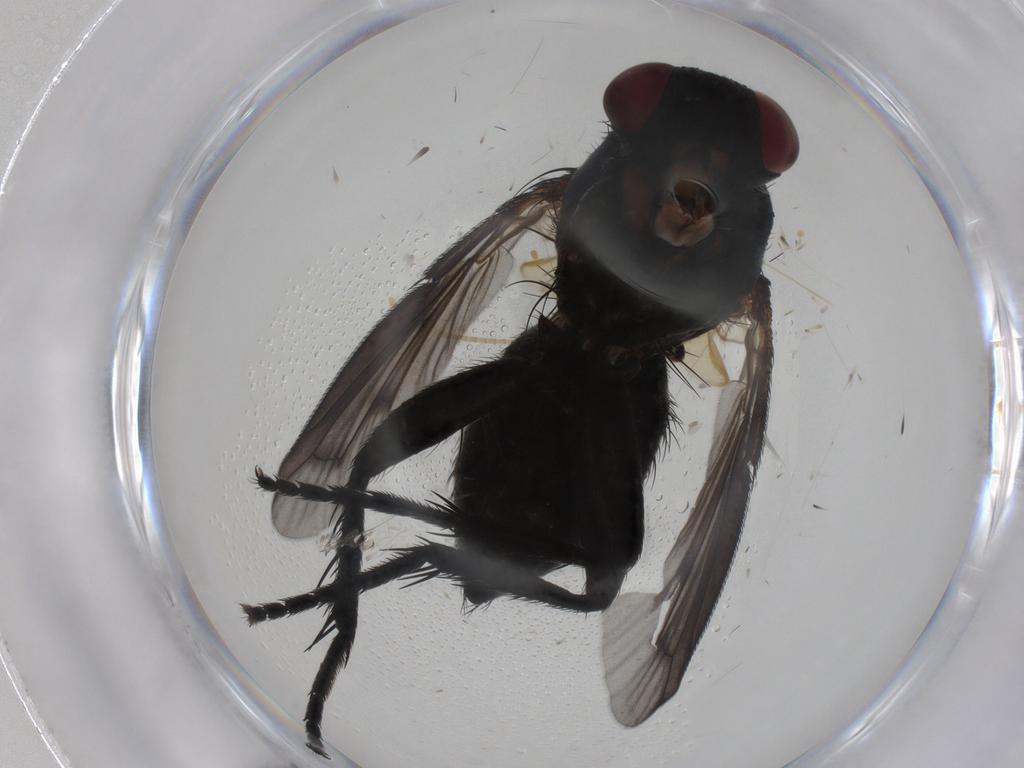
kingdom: Animalia
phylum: Arthropoda
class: Insecta
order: Diptera
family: Tachinidae
